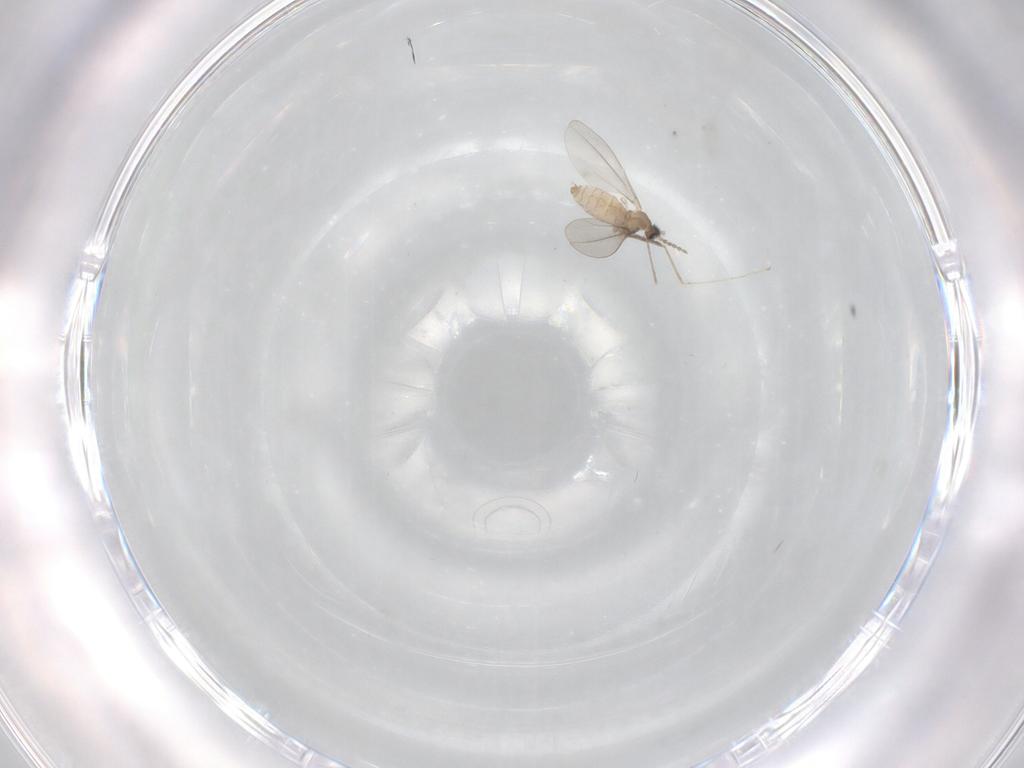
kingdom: Animalia
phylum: Arthropoda
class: Insecta
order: Diptera
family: Cecidomyiidae
